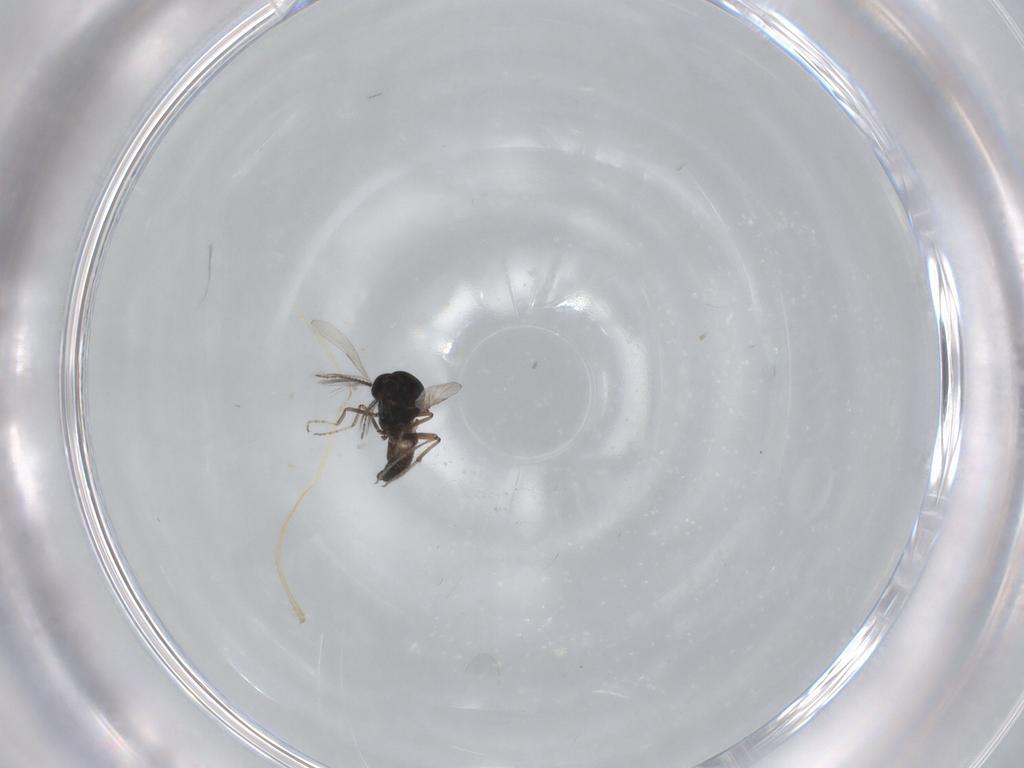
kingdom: Animalia
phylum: Arthropoda
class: Insecta
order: Diptera
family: Ceratopogonidae
